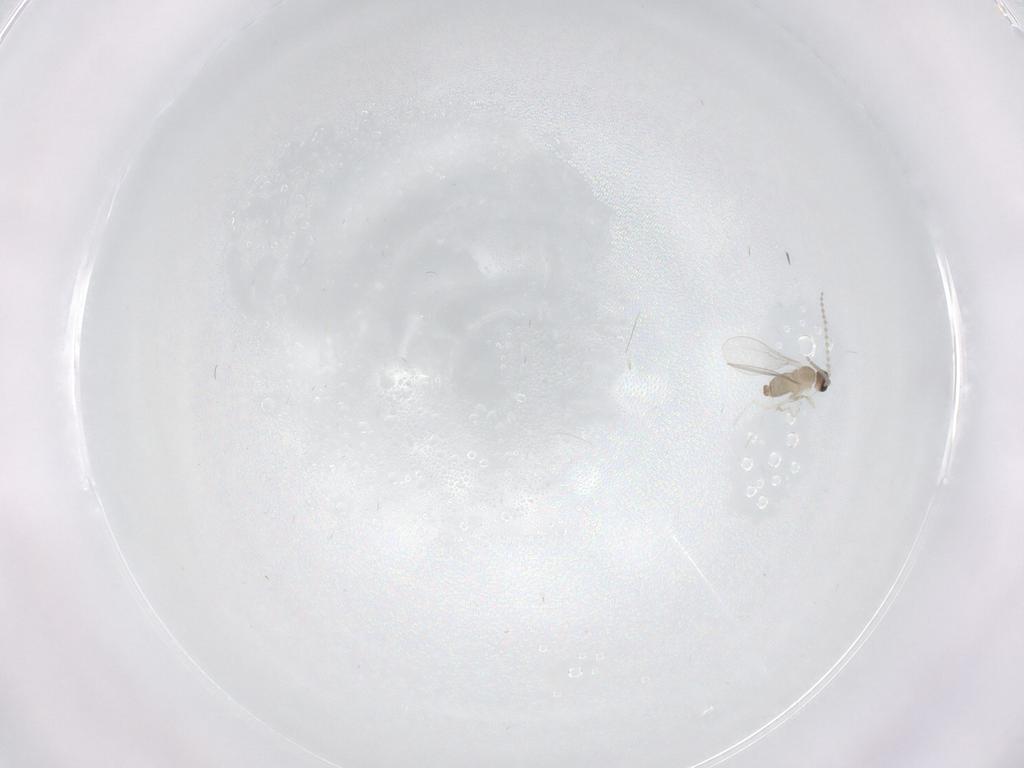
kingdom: Animalia
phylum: Arthropoda
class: Insecta
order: Diptera
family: Cecidomyiidae
